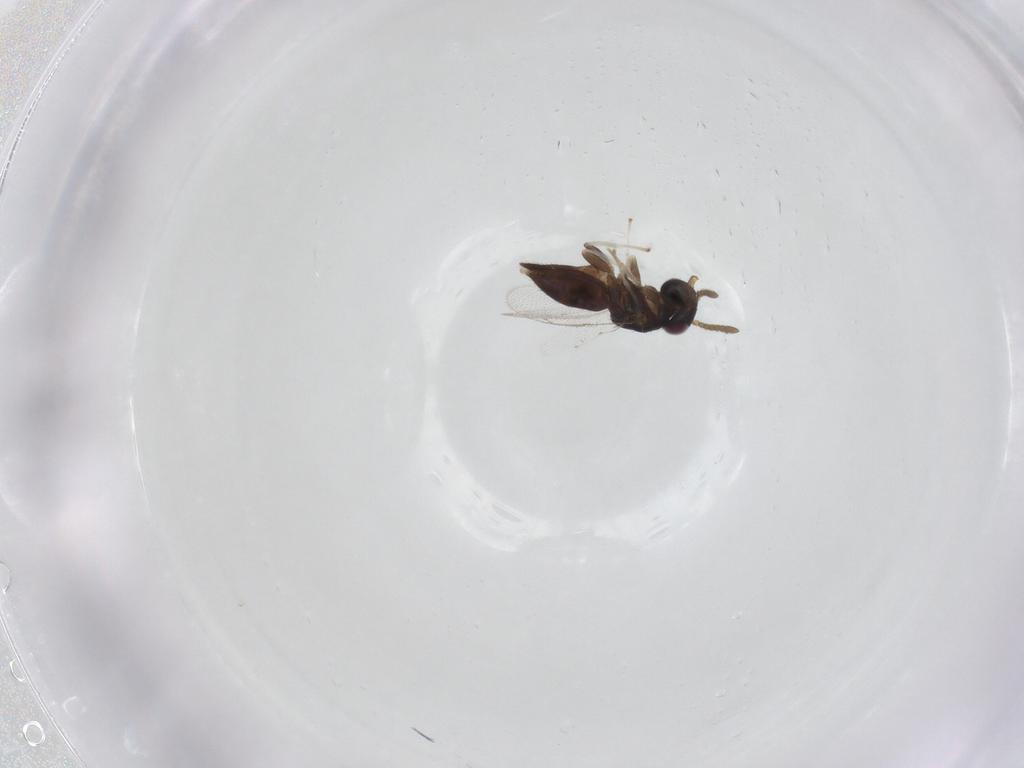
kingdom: Animalia
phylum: Arthropoda
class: Insecta
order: Hymenoptera
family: Pirenidae
